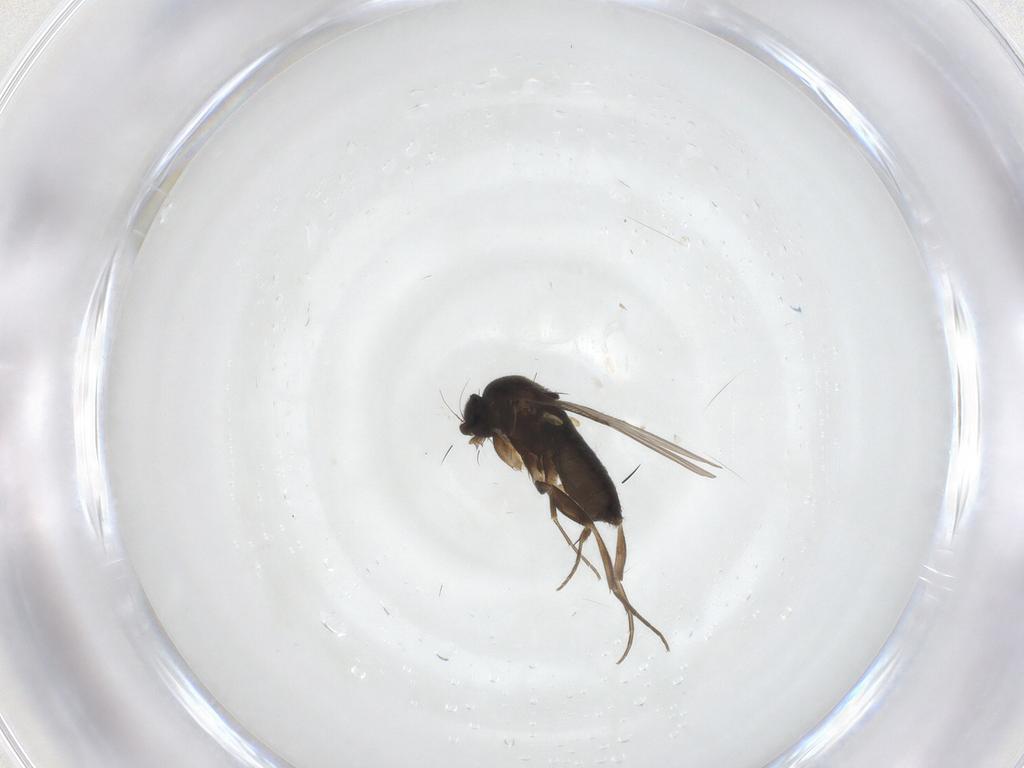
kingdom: Animalia
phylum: Arthropoda
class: Insecta
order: Diptera
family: Phoridae
